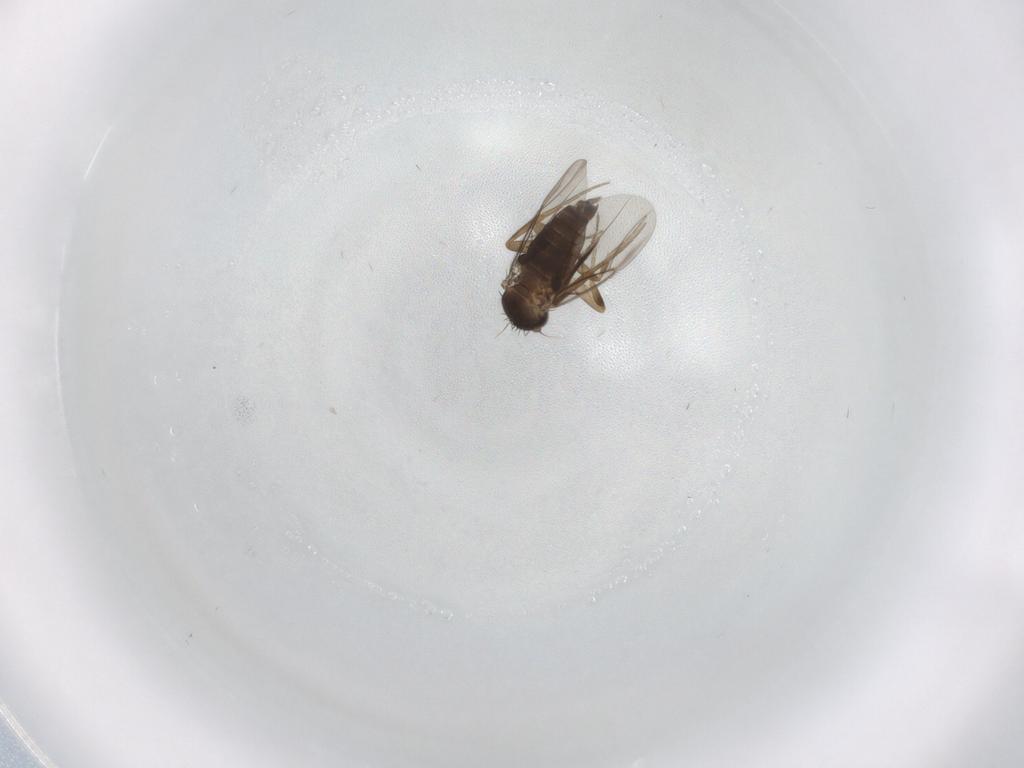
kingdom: Animalia
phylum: Arthropoda
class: Insecta
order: Diptera
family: Phoridae
